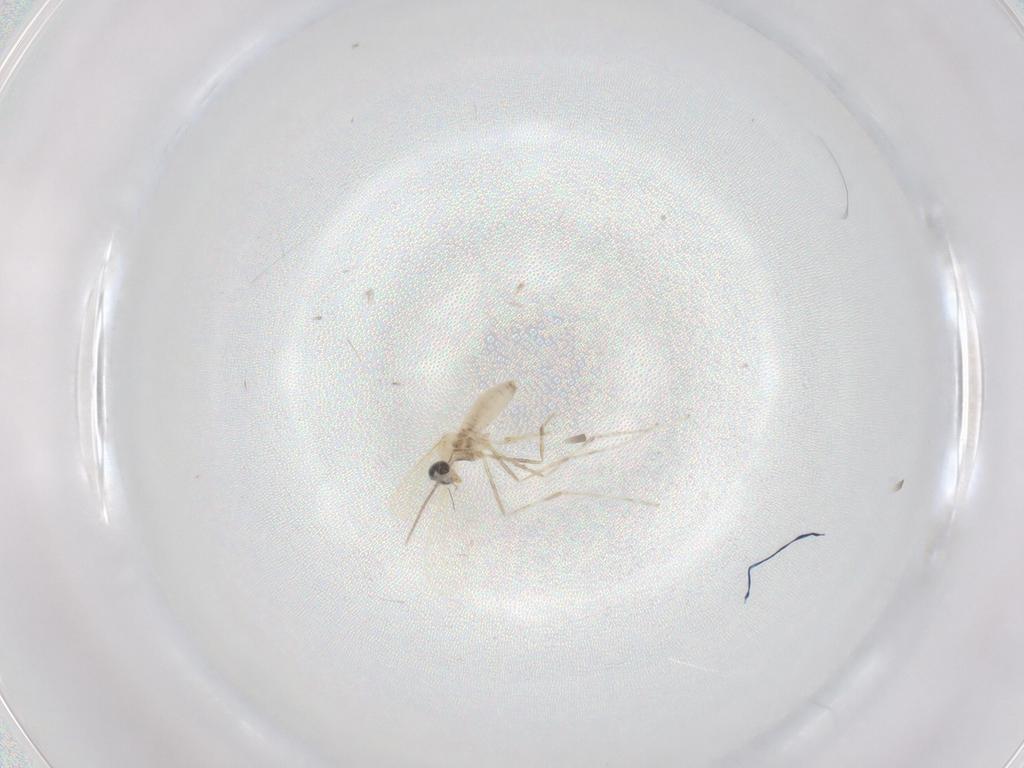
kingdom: Animalia
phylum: Arthropoda
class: Insecta
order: Diptera
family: Cecidomyiidae
